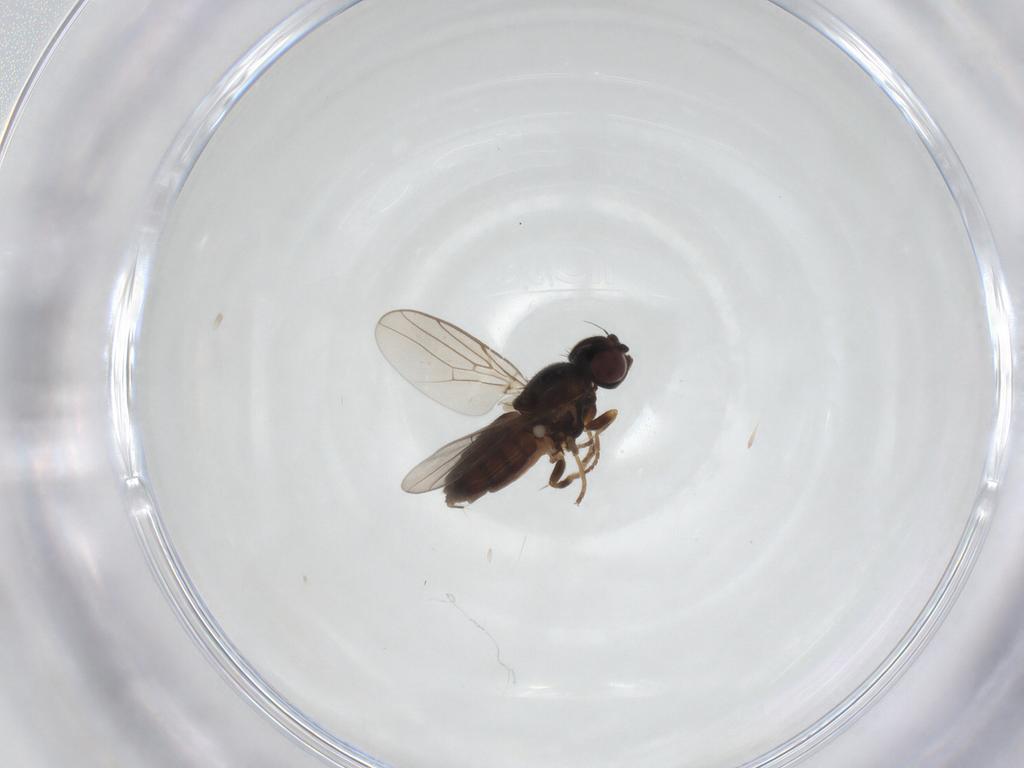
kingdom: Animalia
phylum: Arthropoda
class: Insecta
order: Diptera
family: Chloropidae
